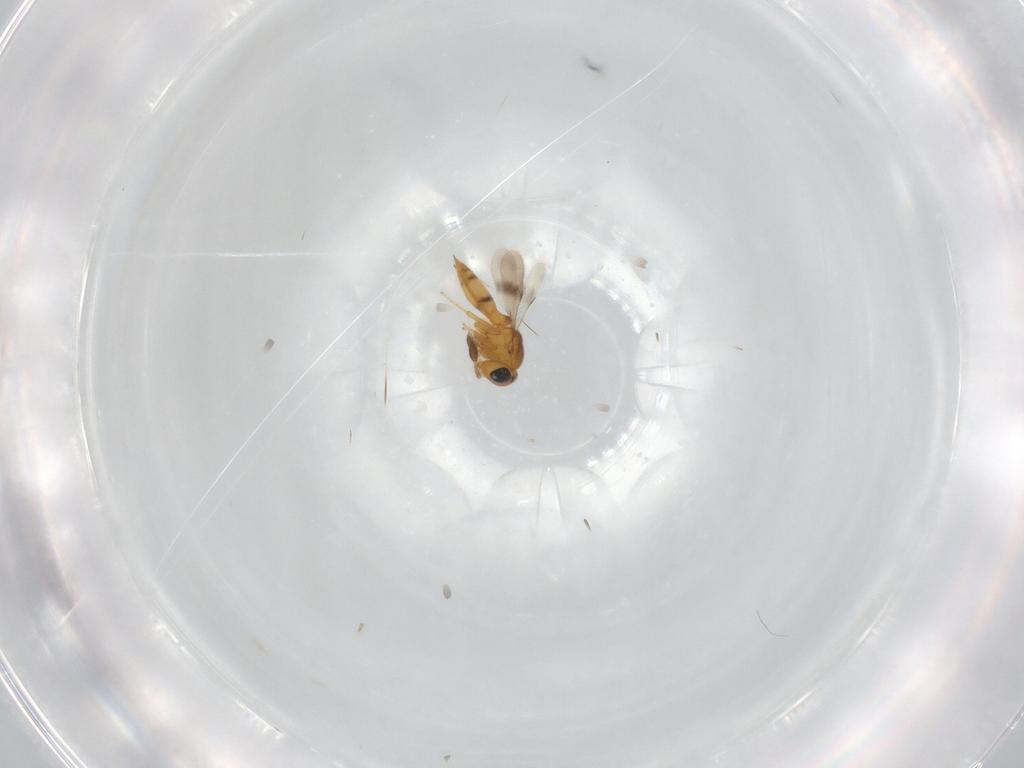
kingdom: Animalia
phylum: Arthropoda
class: Insecta
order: Hymenoptera
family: Scelionidae
